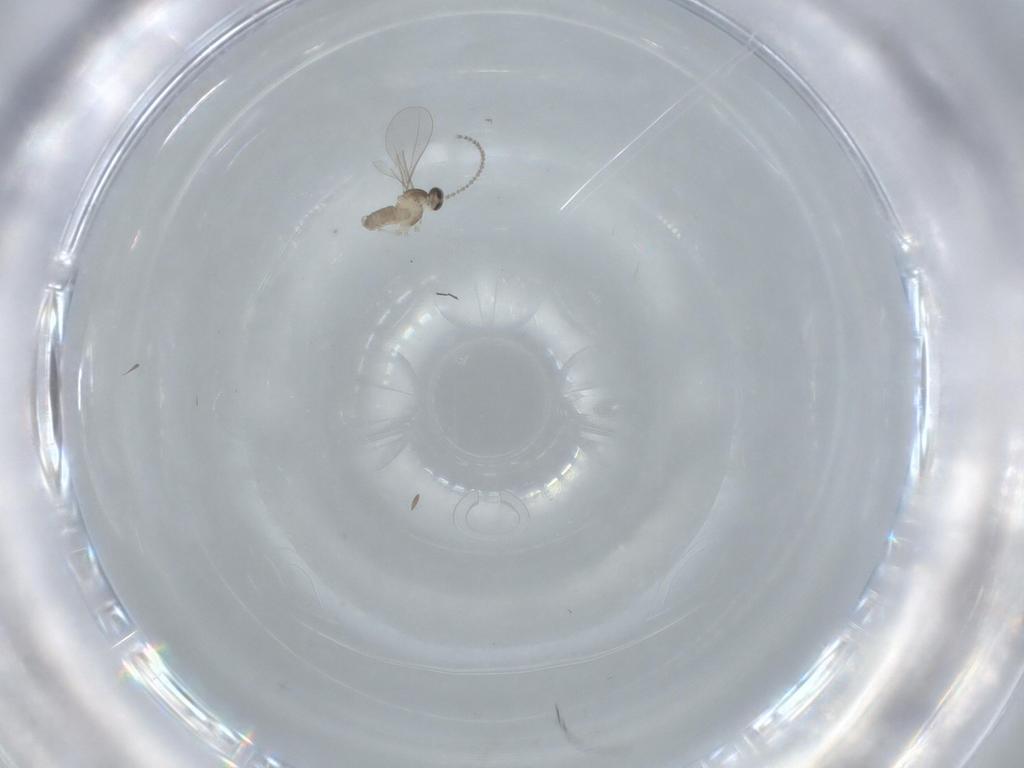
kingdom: Animalia
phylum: Arthropoda
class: Insecta
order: Diptera
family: Cecidomyiidae
